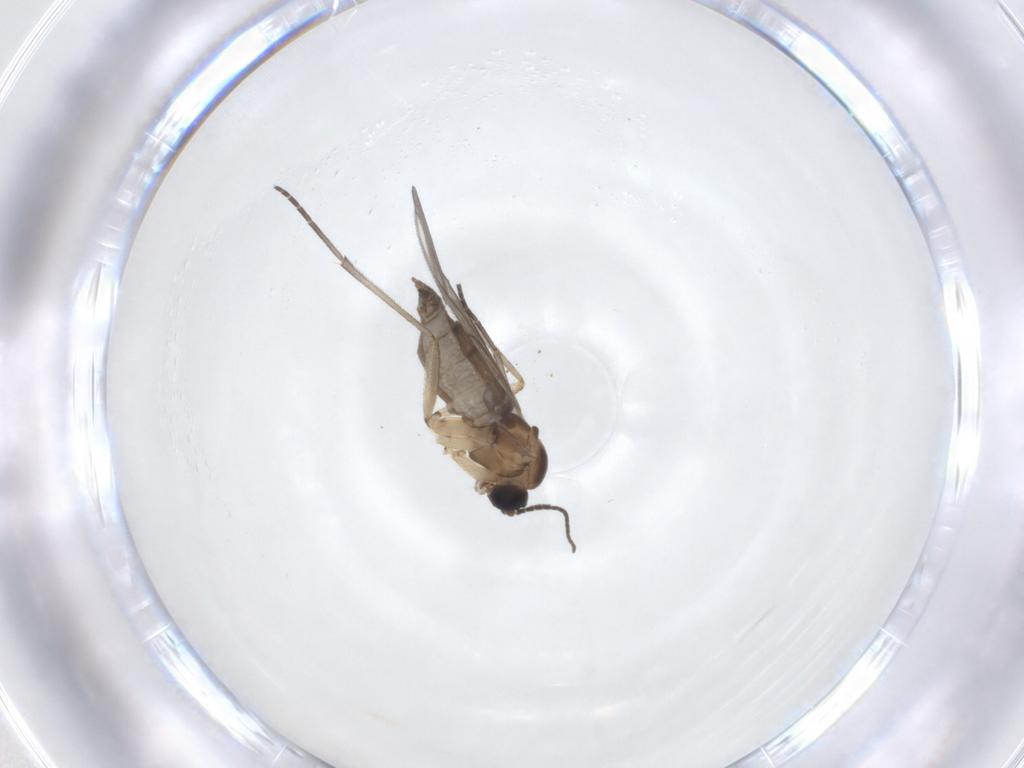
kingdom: Animalia
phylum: Arthropoda
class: Insecta
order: Diptera
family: Sciaridae
